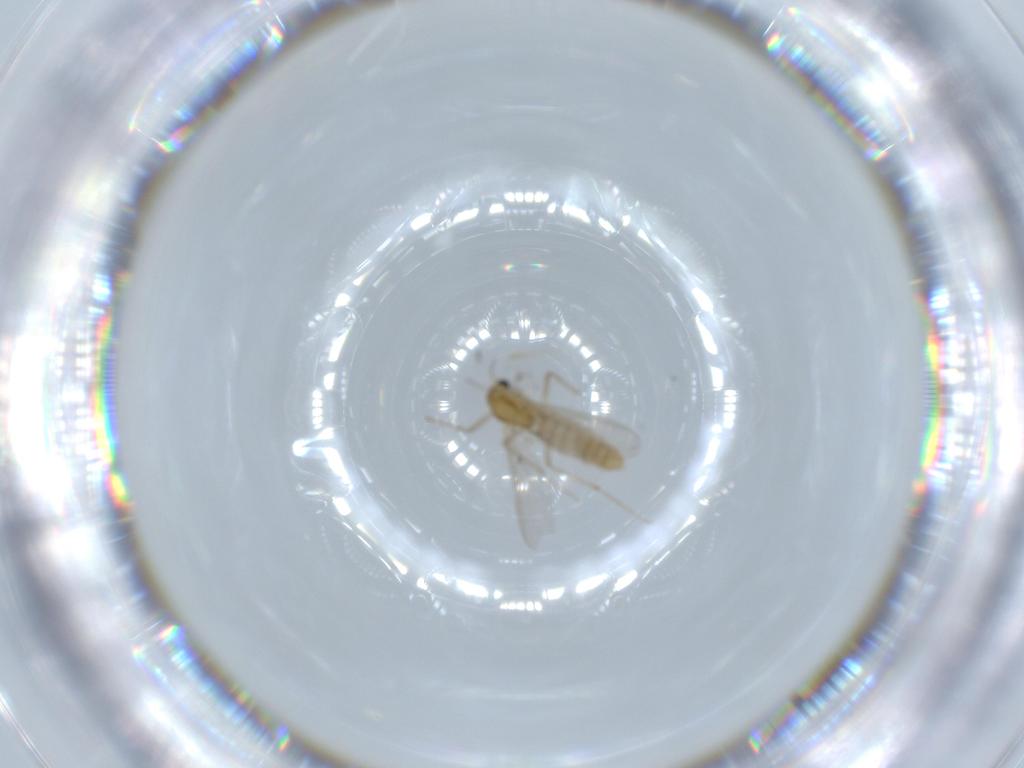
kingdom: Animalia
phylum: Arthropoda
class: Insecta
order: Diptera
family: Chironomidae
